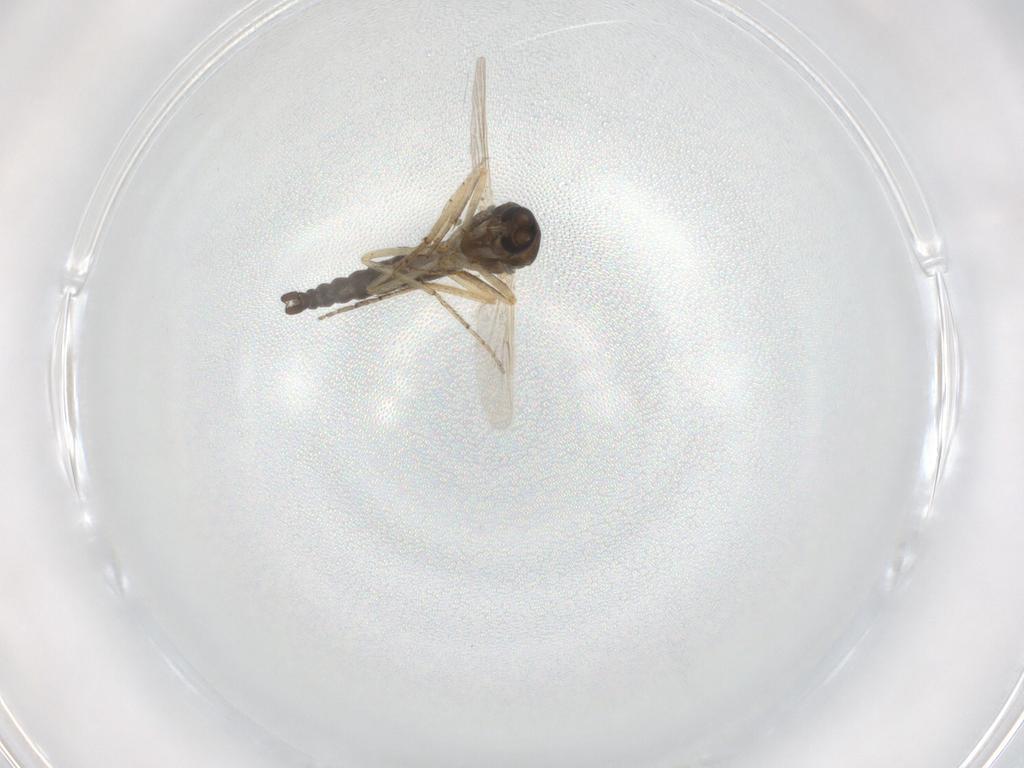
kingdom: Animalia
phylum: Arthropoda
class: Insecta
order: Diptera
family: Ceratopogonidae
